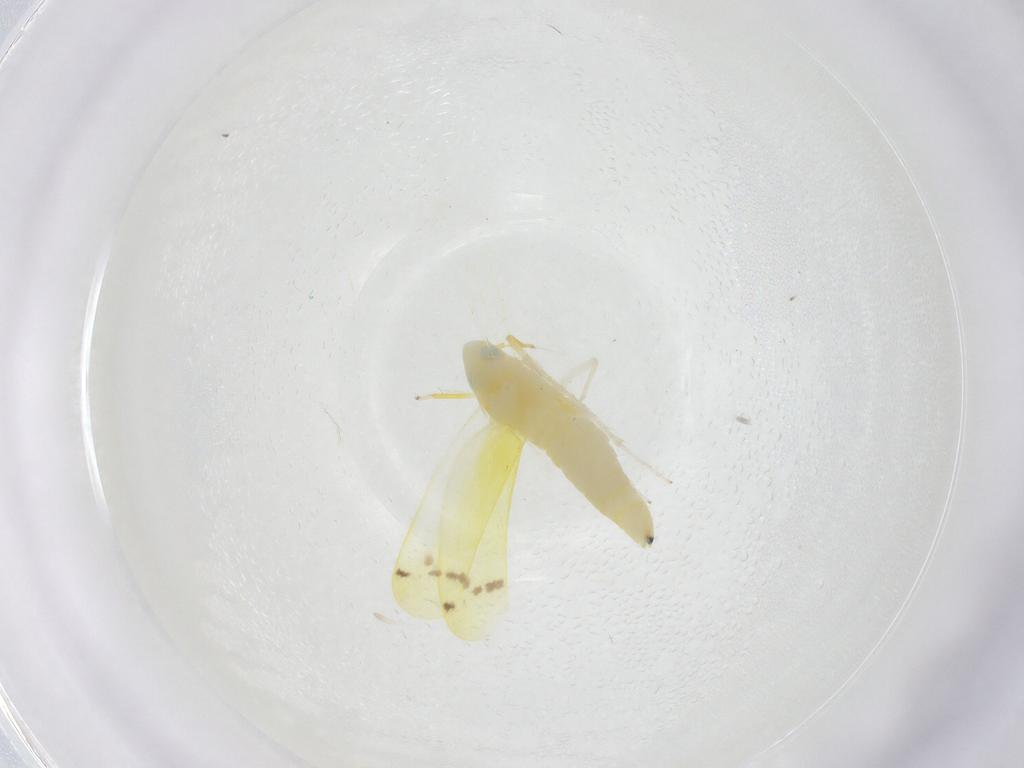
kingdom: Animalia
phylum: Arthropoda
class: Insecta
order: Hemiptera
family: Cicadellidae
